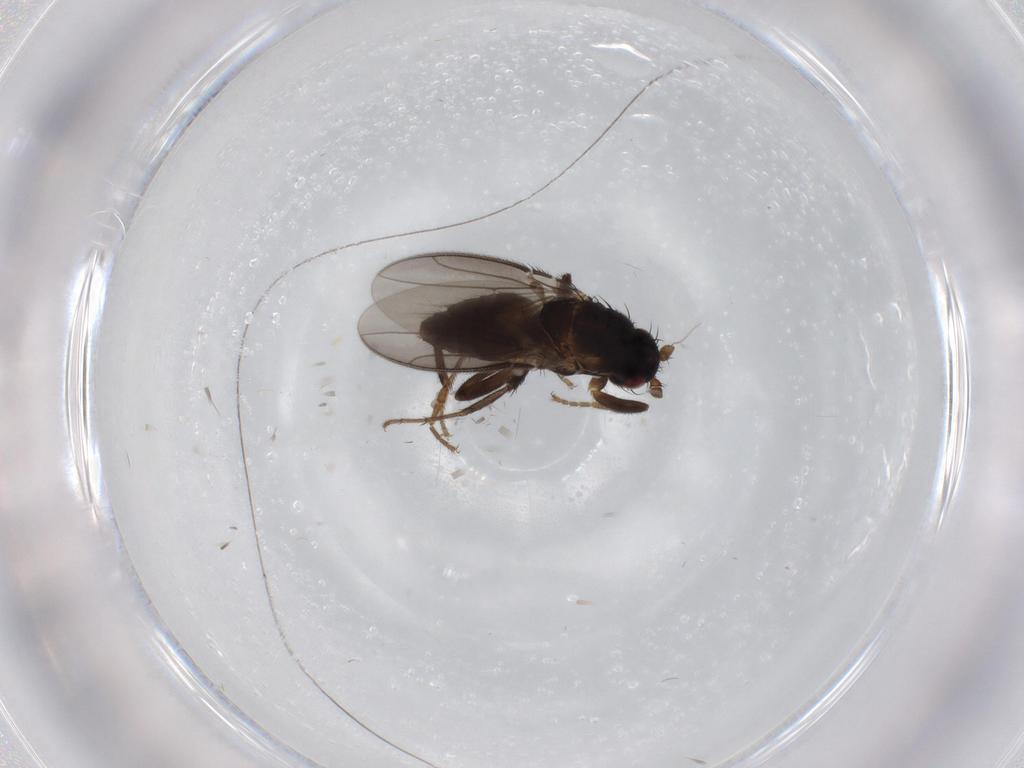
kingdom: Animalia
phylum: Arthropoda
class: Insecta
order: Diptera
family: Sphaeroceridae
